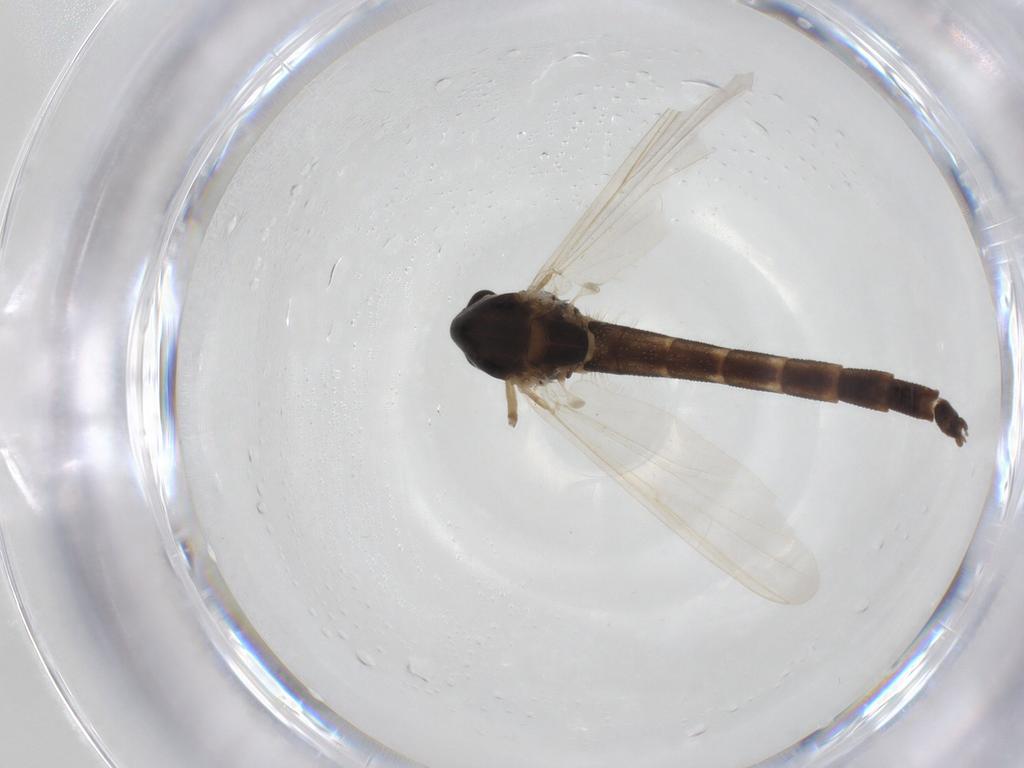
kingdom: Animalia
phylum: Arthropoda
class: Insecta
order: Diptera
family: Chironomidae
